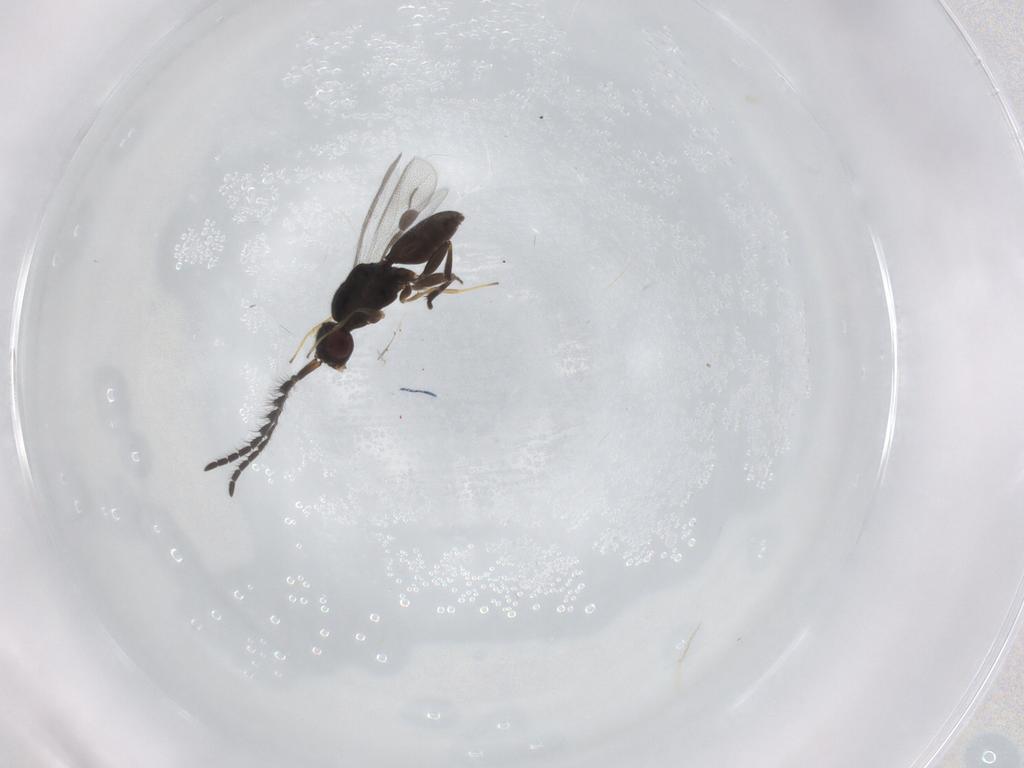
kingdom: Animalia
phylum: Arthropoda
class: Insecta
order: Hymenoptera
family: Megaspilidae
